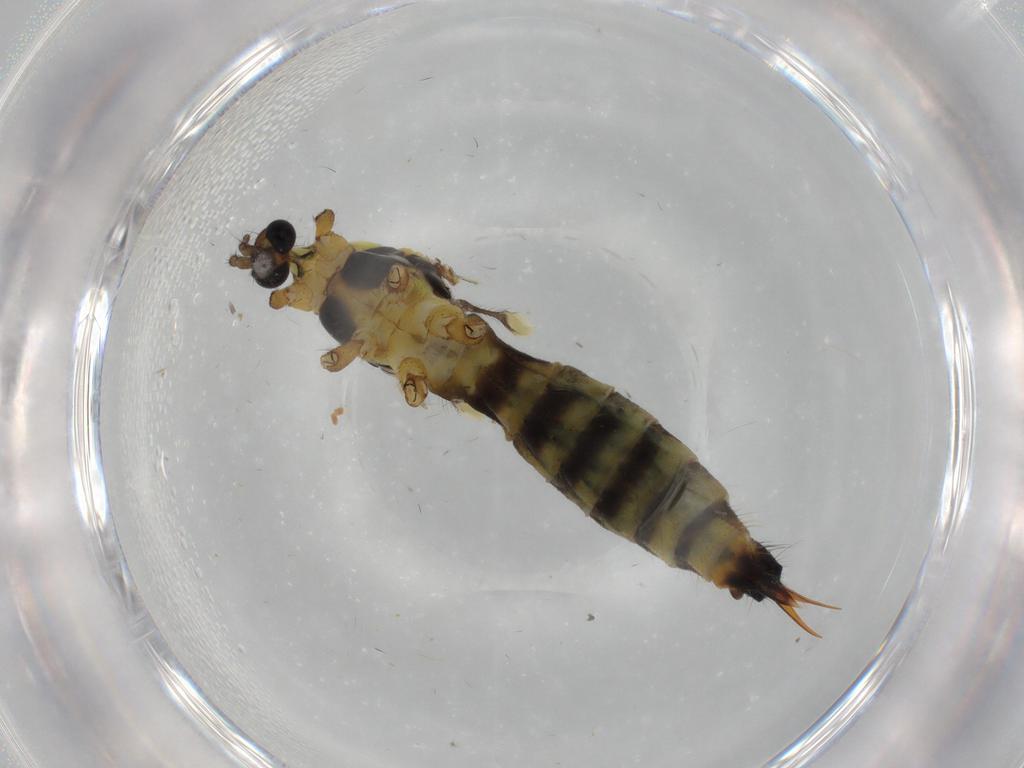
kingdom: Animalia
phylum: Arthropoda
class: Insecta
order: Diptera
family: Limoniidae
